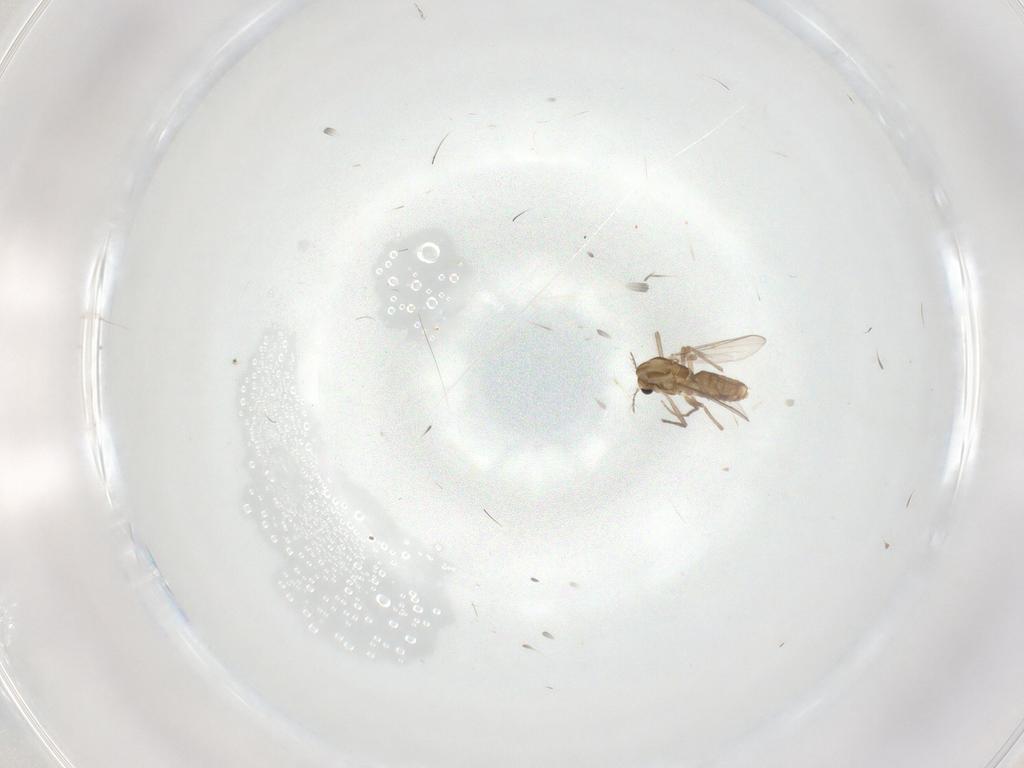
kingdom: Animalia
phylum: Arthropoda
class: Insecta
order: Diptera
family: Chironomidae
